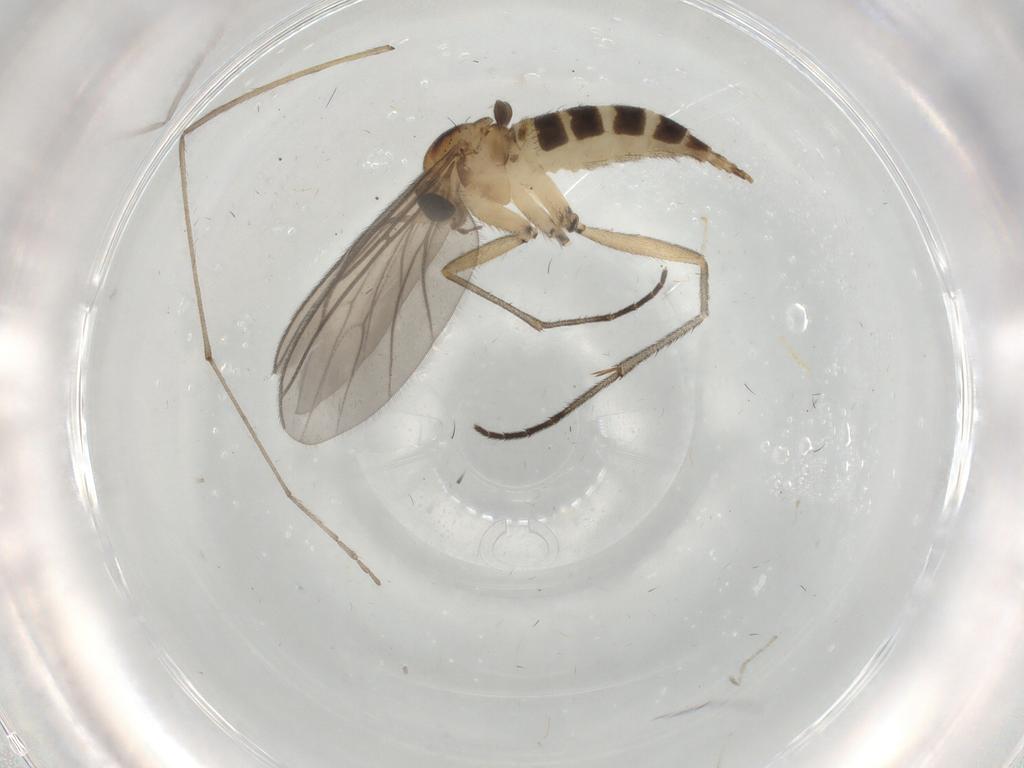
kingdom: Animalia
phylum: Arthropoda
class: Insecta
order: Diptera
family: Sciaridae
